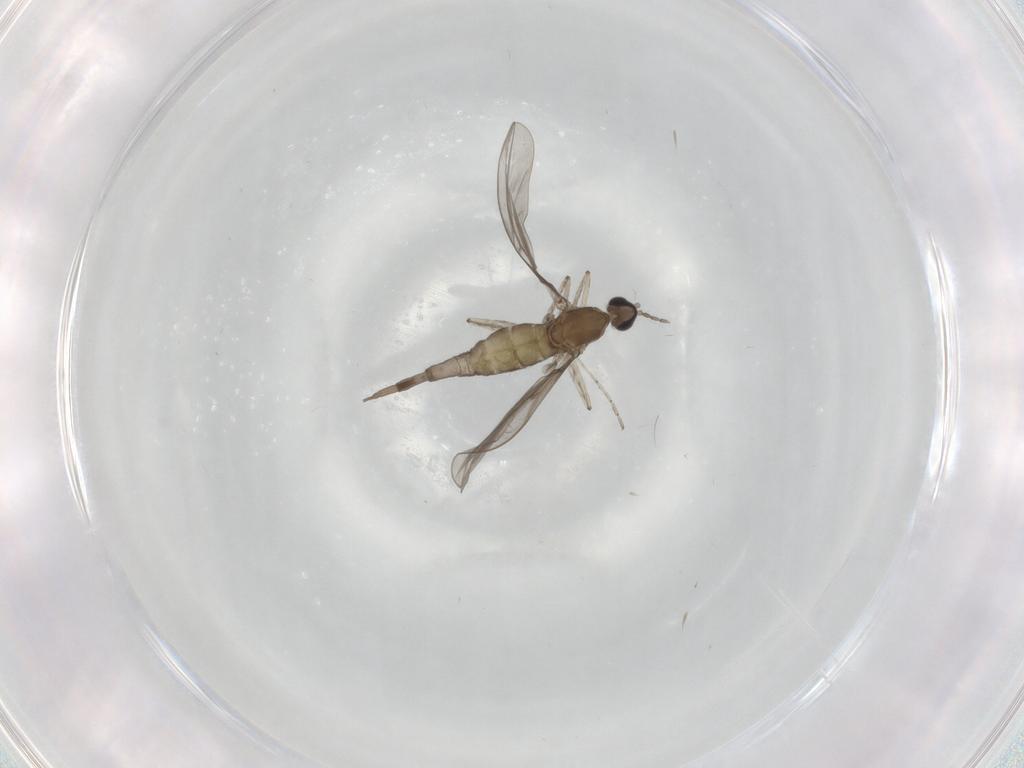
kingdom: Animalia
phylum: Arthropoda
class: Insecta
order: Diptera
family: Cecidomyiidae
